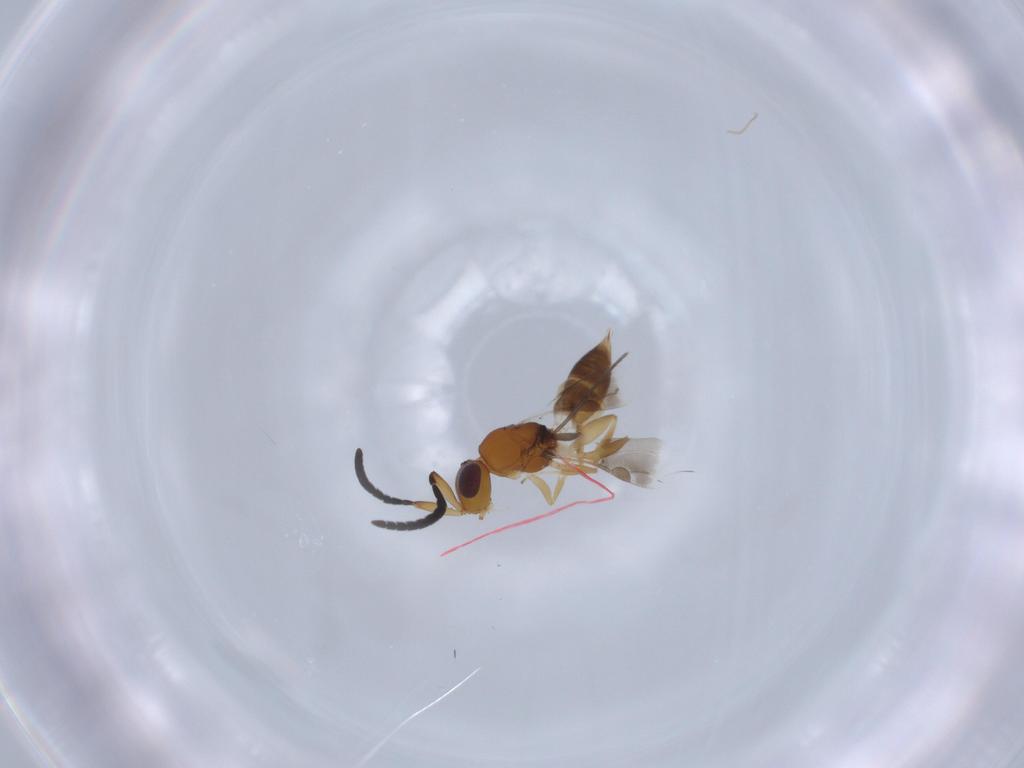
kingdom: Animalia
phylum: Arthropoda
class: Insecta
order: Hymenoptera
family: Megaspilidae
